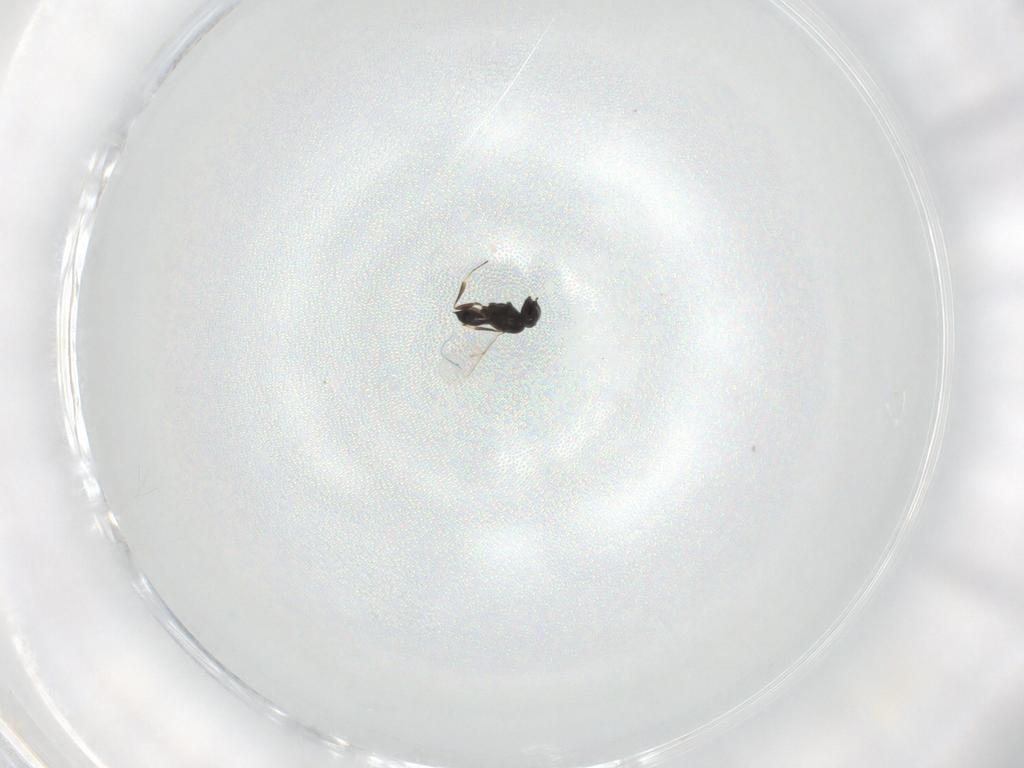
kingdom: Animalia
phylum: Arthropoda
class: Insecta
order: Hymenoptera
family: Scelionidae
